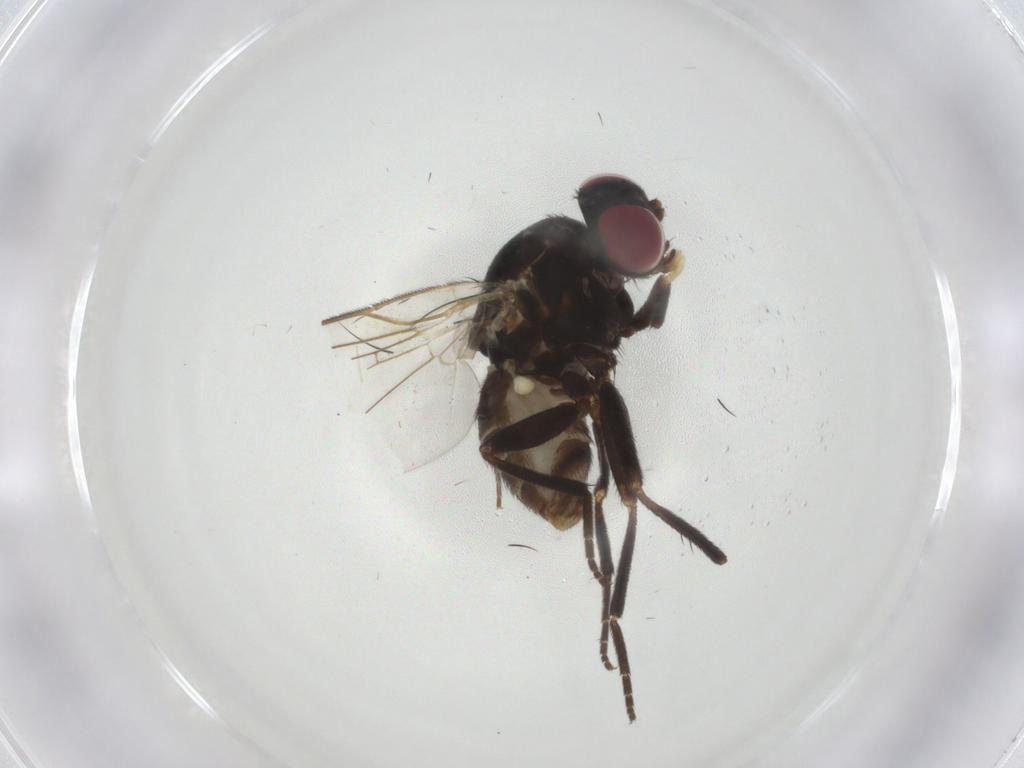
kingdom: Animalia
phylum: Arthropoda
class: Insecta
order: Diptera
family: Agromyzidae
